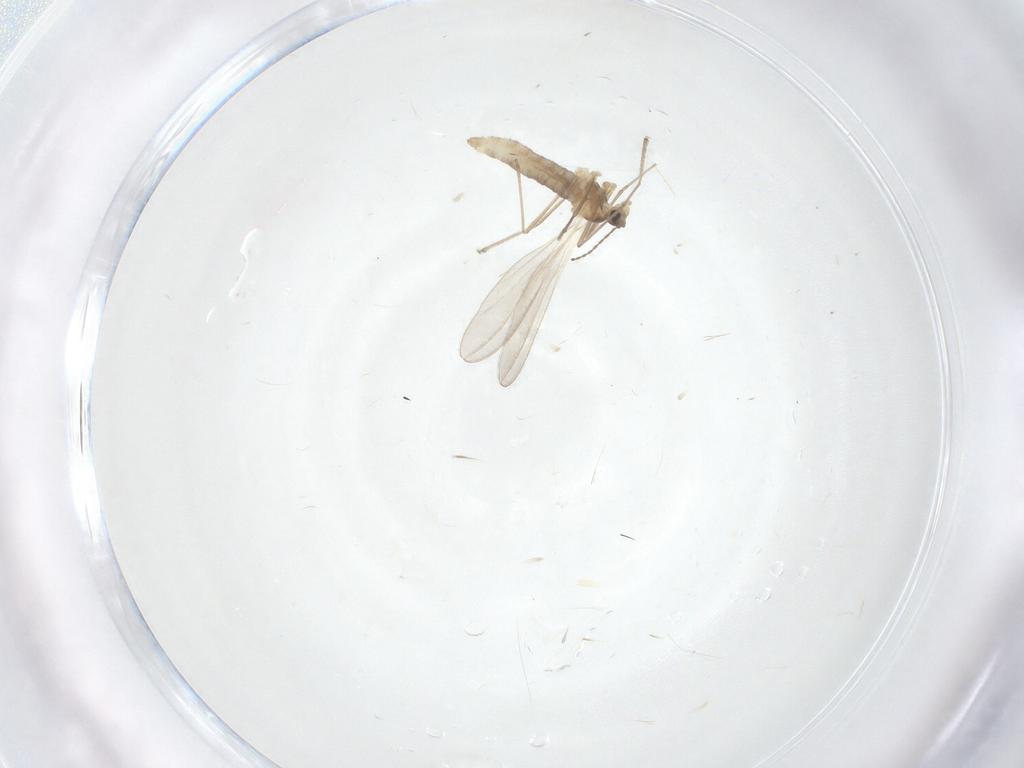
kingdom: Animalia
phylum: Arthropoda
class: Insecta
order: Diptera
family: Phoridae
